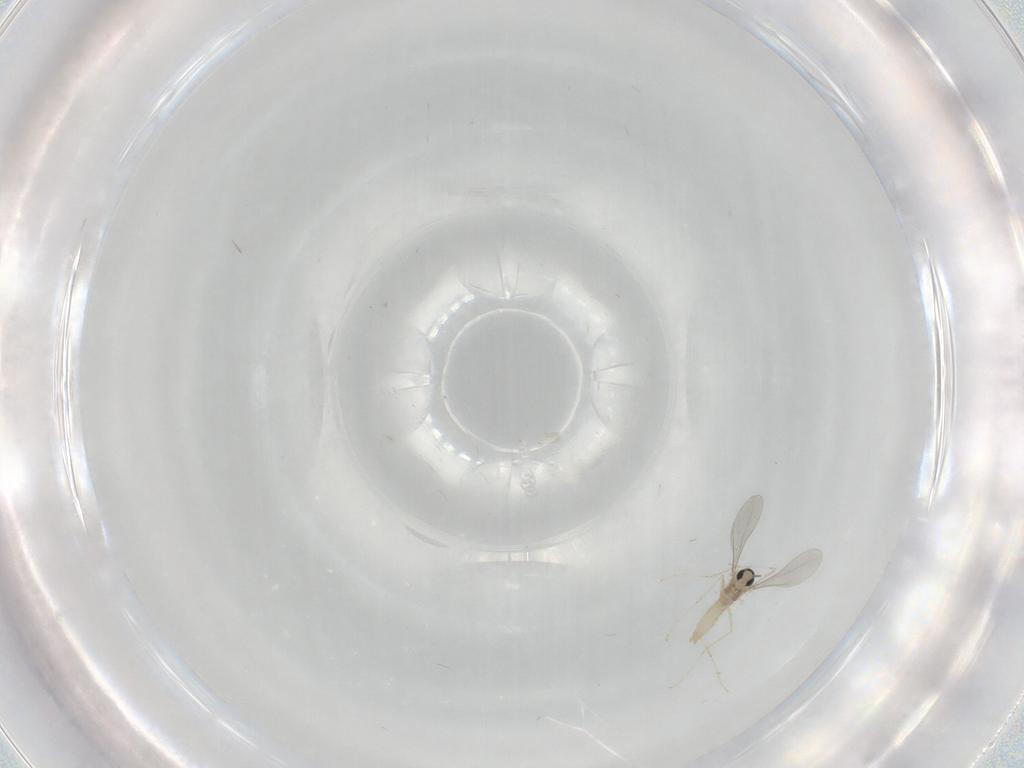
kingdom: Animalia
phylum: Arthropoda
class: Insecta
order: Diptera
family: Cecidomyiidae
